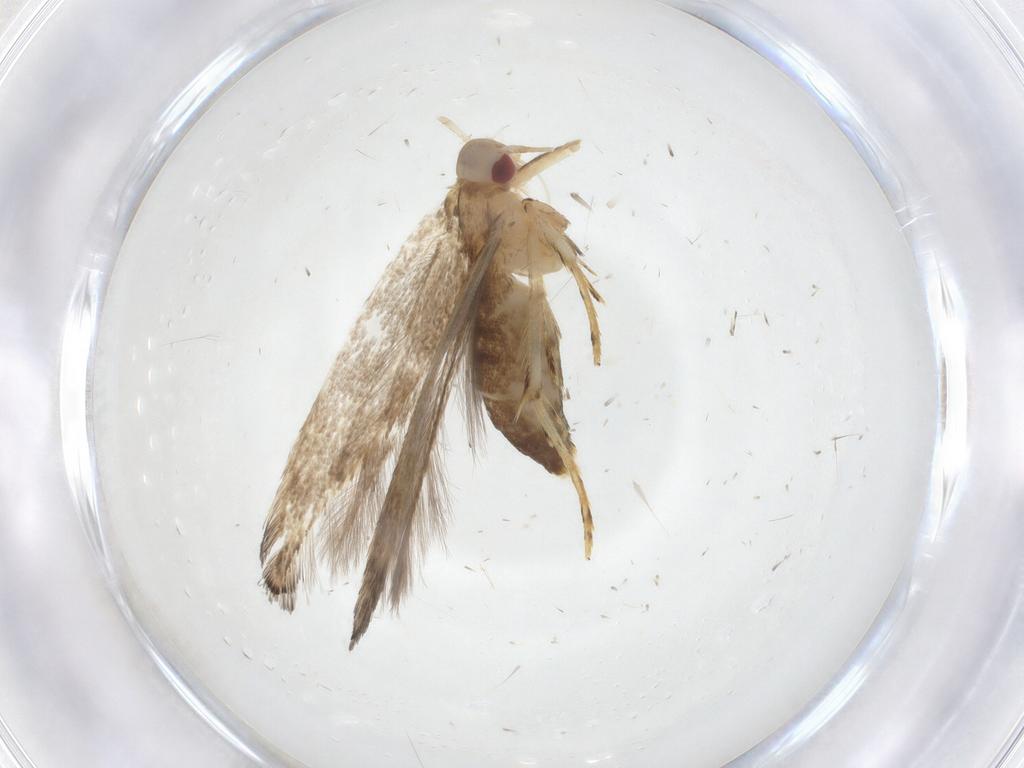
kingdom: Animalia
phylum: Arthropoda
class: Insecta
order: Lepidoptera
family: Cosmopterigidae
